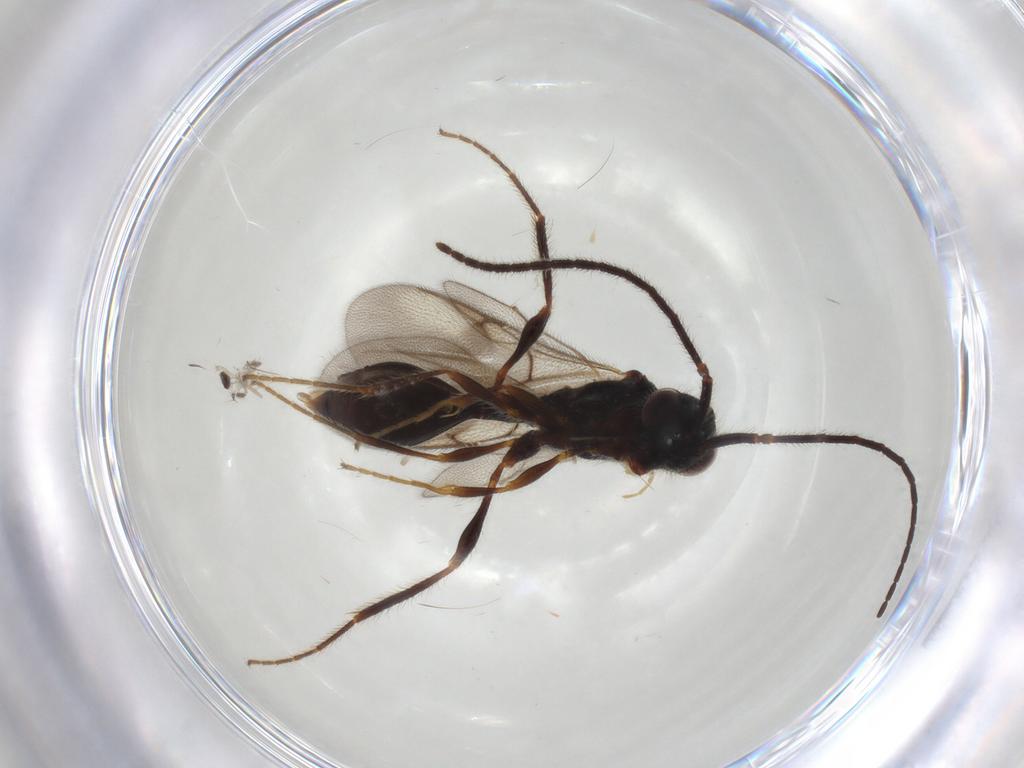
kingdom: Animalia
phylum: Arthropoda
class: Insecta
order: Hymenoptera
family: Diapriidae
